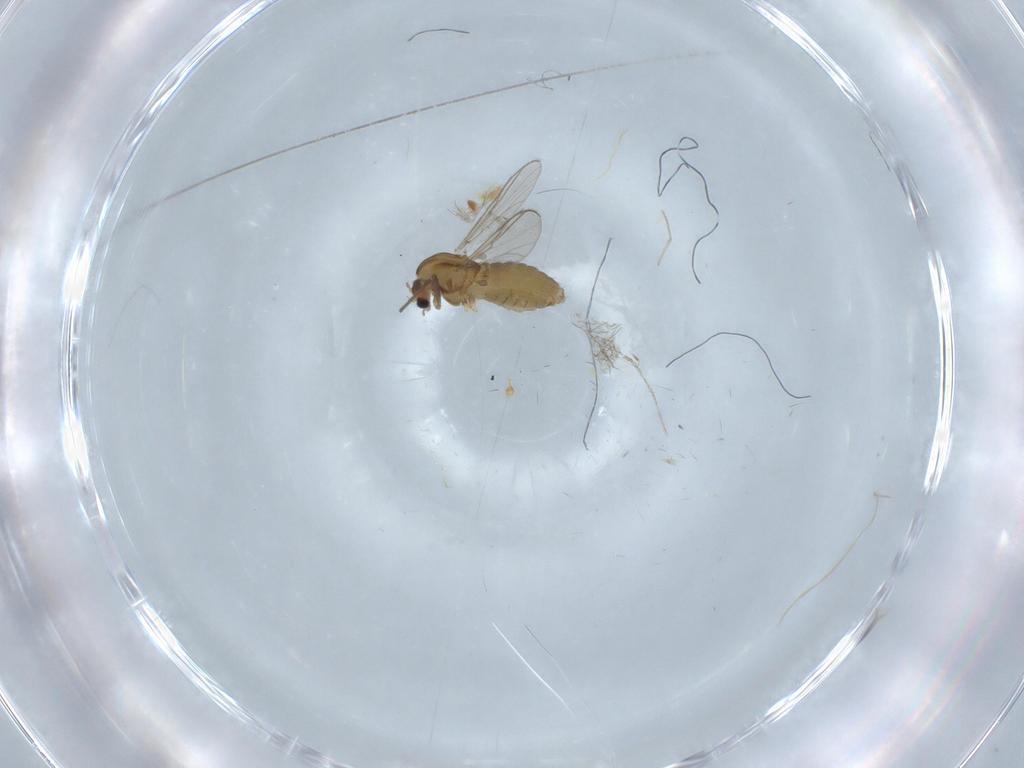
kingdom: Animalia
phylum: Arthropoda
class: Insecta
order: Diptera
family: Chironomidae
